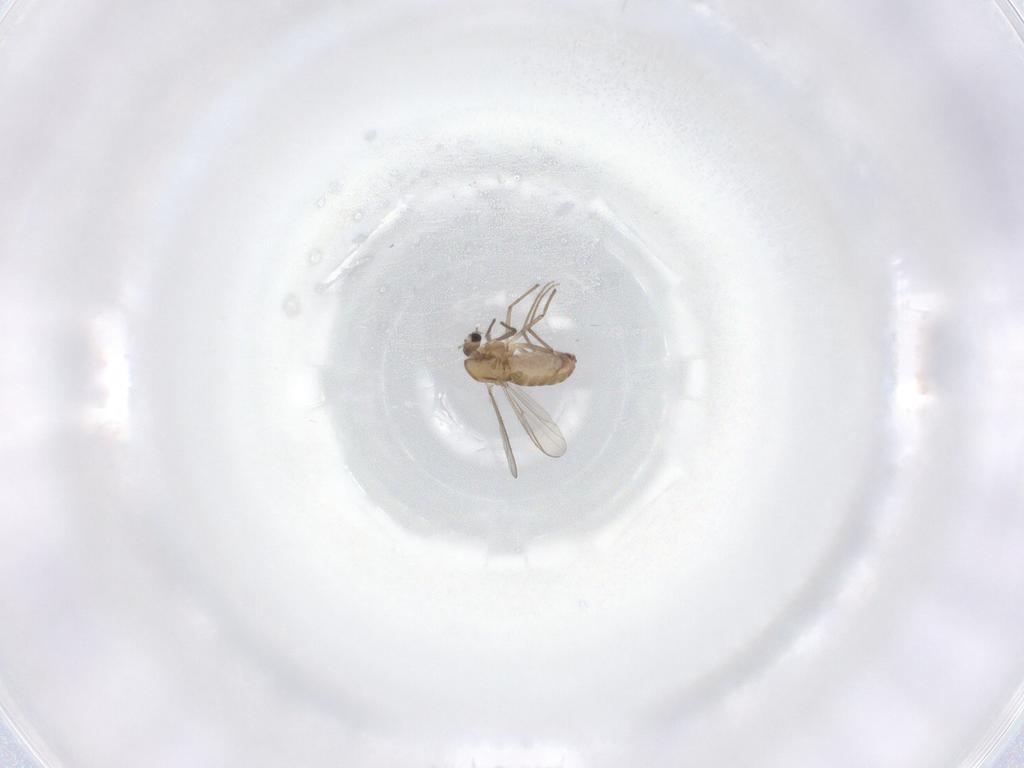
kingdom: Animalia
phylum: Arthropoda
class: Insecta
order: Diptera
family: Chironomidae
